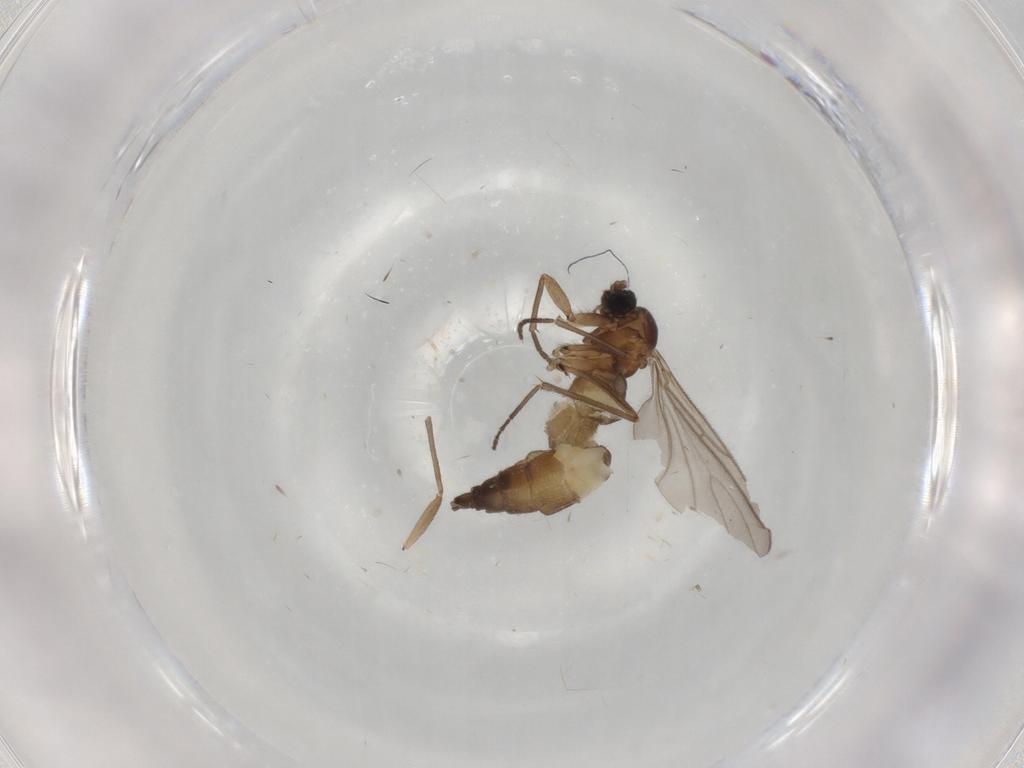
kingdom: Animalia
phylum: Arthropoda
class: Insecta
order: Diptera
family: Sciaridae
